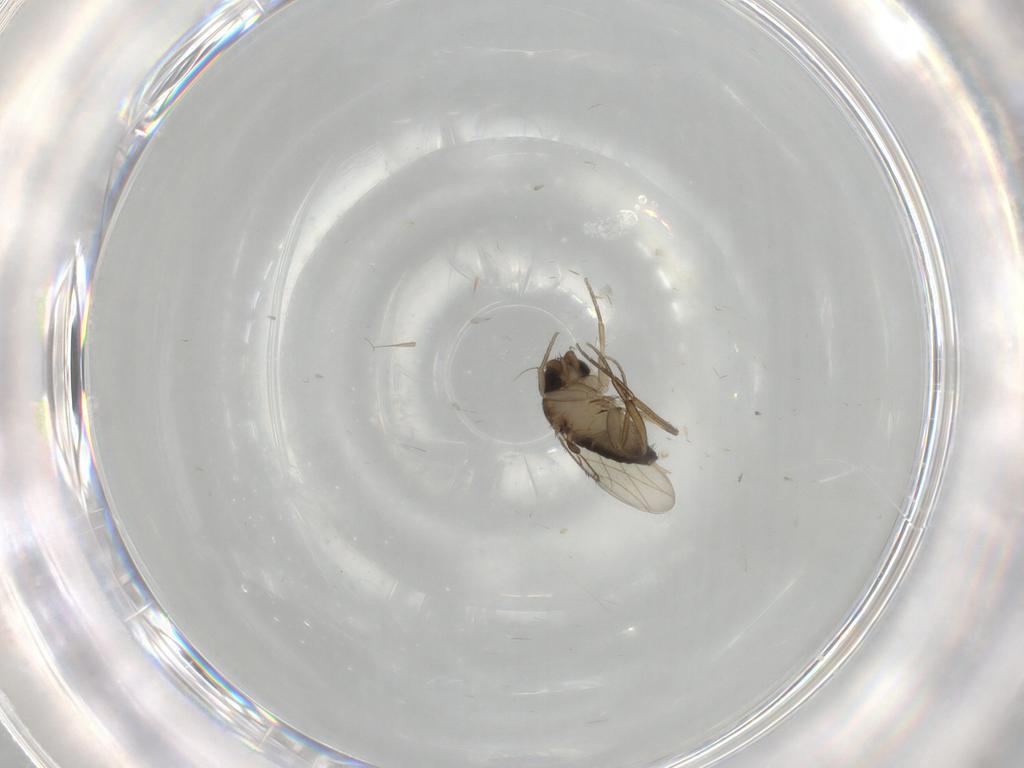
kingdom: Animalia
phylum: Arthropoda
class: Insecta
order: Diptera
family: Phoridae
